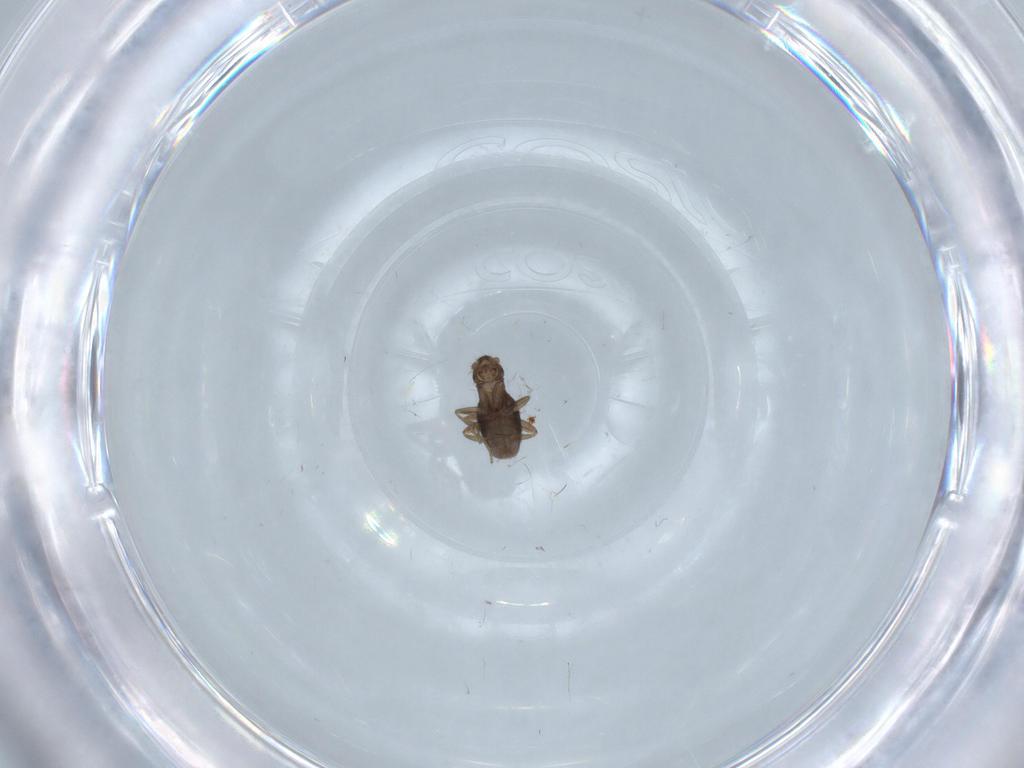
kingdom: Animalia
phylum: Arthropoda
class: Insecta
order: Diptera
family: Phoridae
